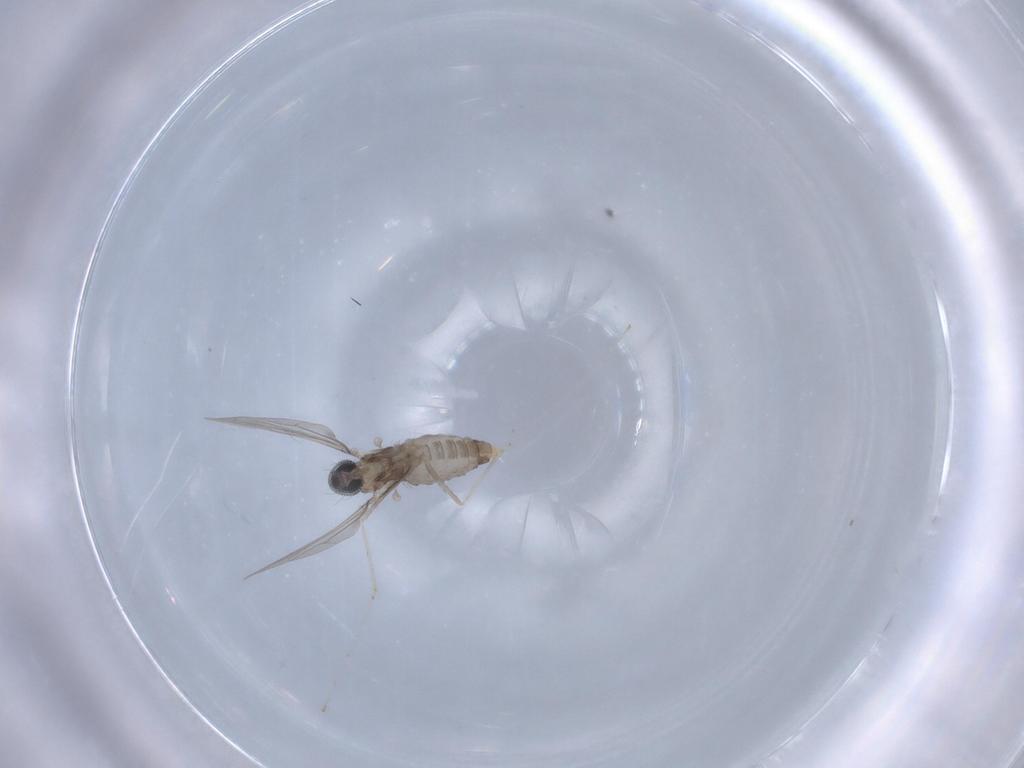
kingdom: Animalia
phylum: Arthropoda
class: Insecta
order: Diptera
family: Cecidomyiidae
